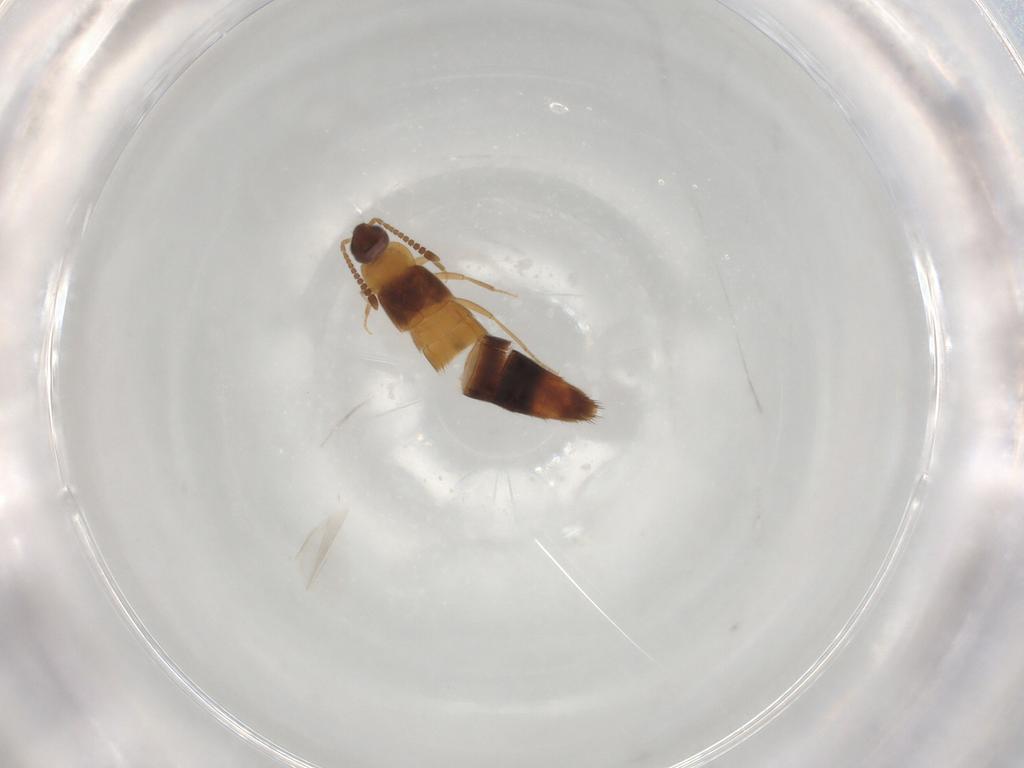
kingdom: Animalia
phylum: Arthropoda
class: Insecta
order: Coleoptera
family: Staphylinidae
